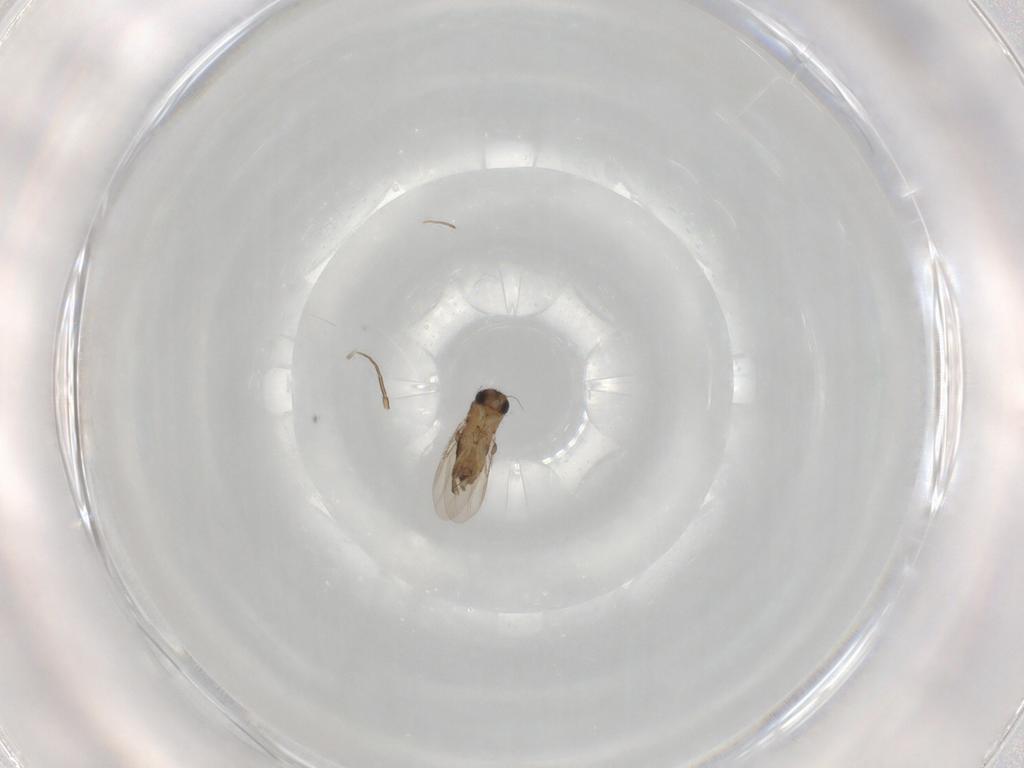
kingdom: Animalia
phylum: Arthropoda
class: Insecta
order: Diptera
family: Phoridae
